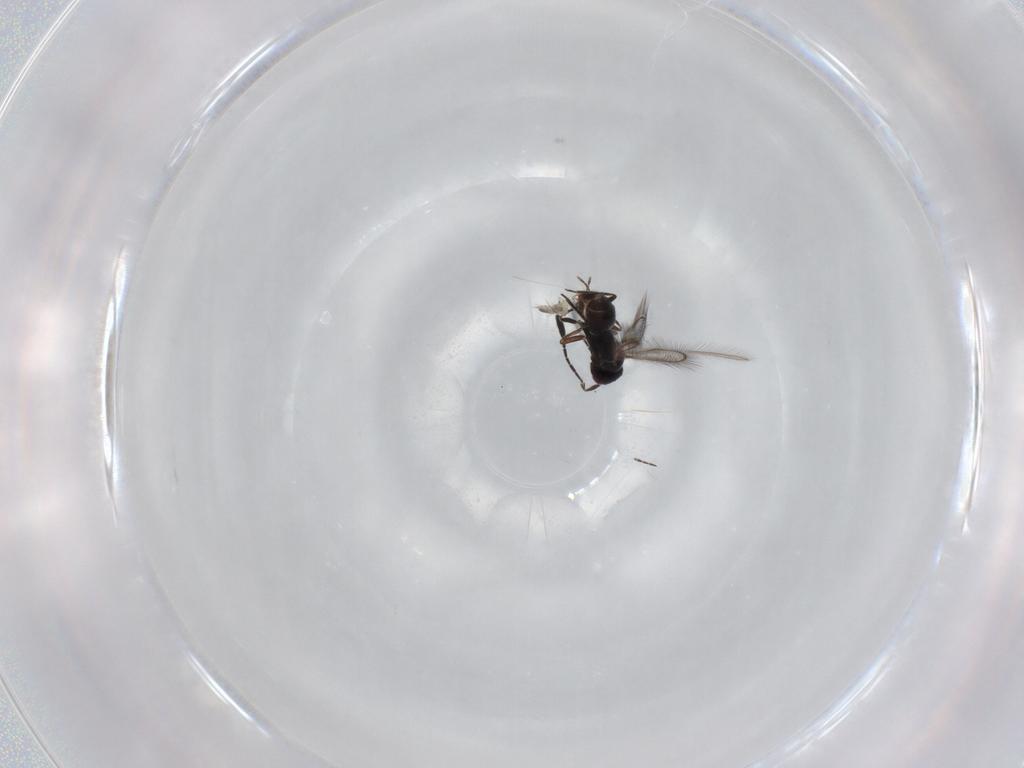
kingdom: Animalia
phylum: Arthropoda
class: Insecta
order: Hymenoptera
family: Mymaridae
